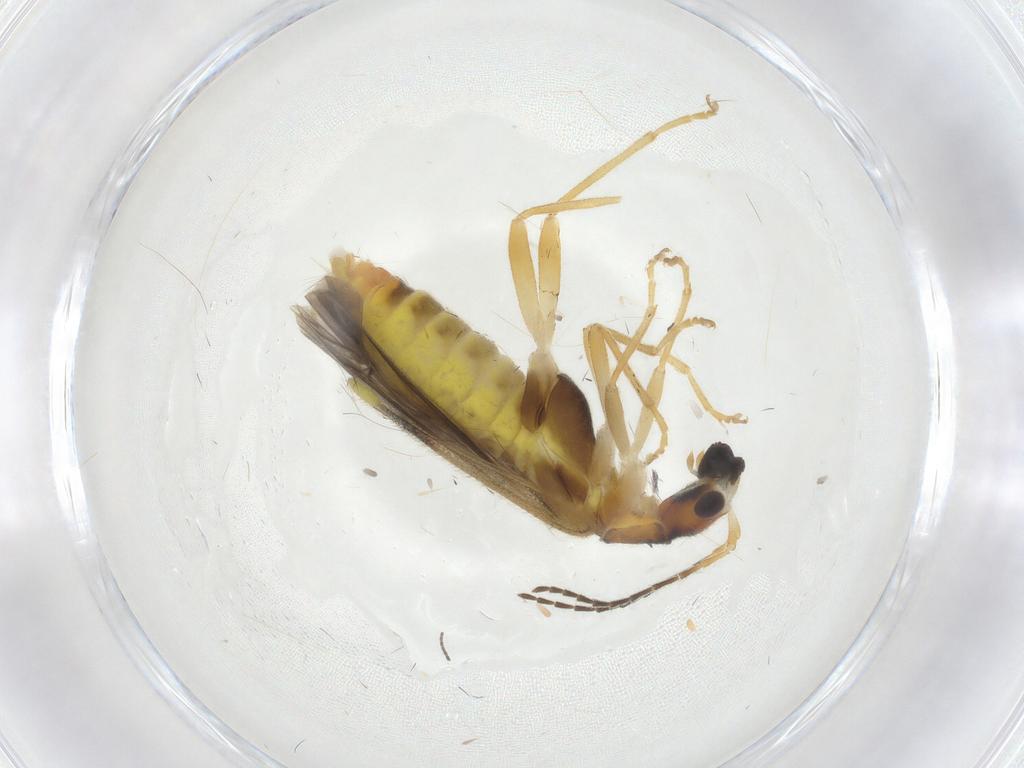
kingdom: Animalia
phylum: Arthropoda
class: Insecta
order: Coleoptera
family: Cantharidae
